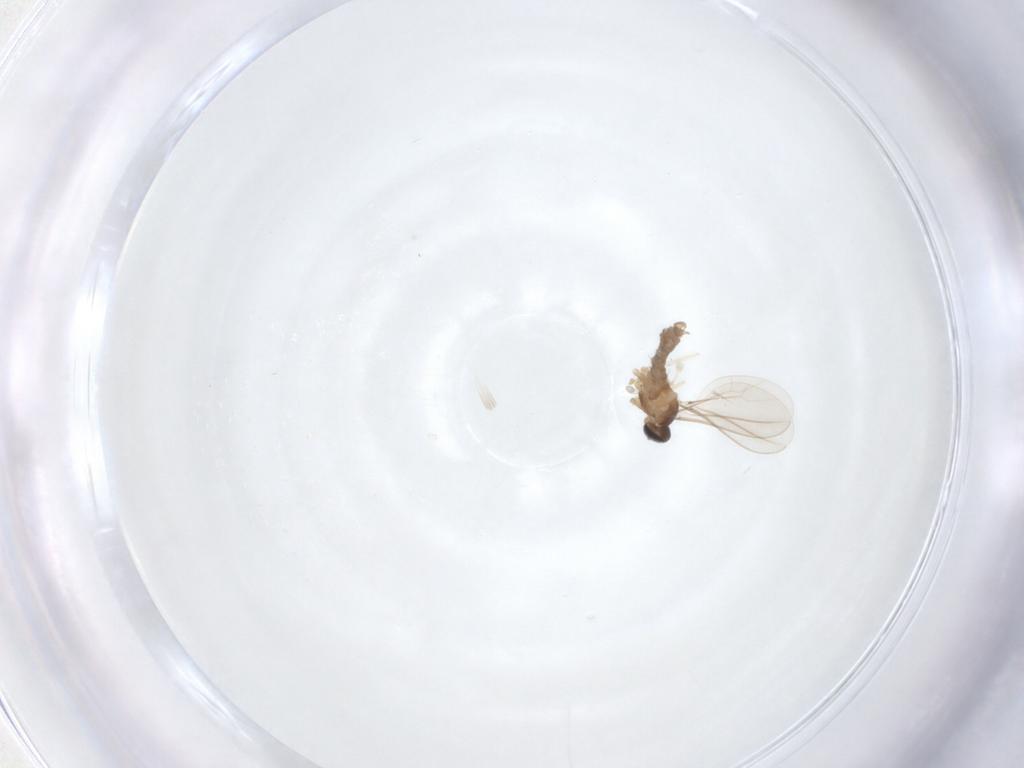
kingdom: Animalia
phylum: Arthropoda
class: Insecta
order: Diptera
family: Cecidomyiidae
